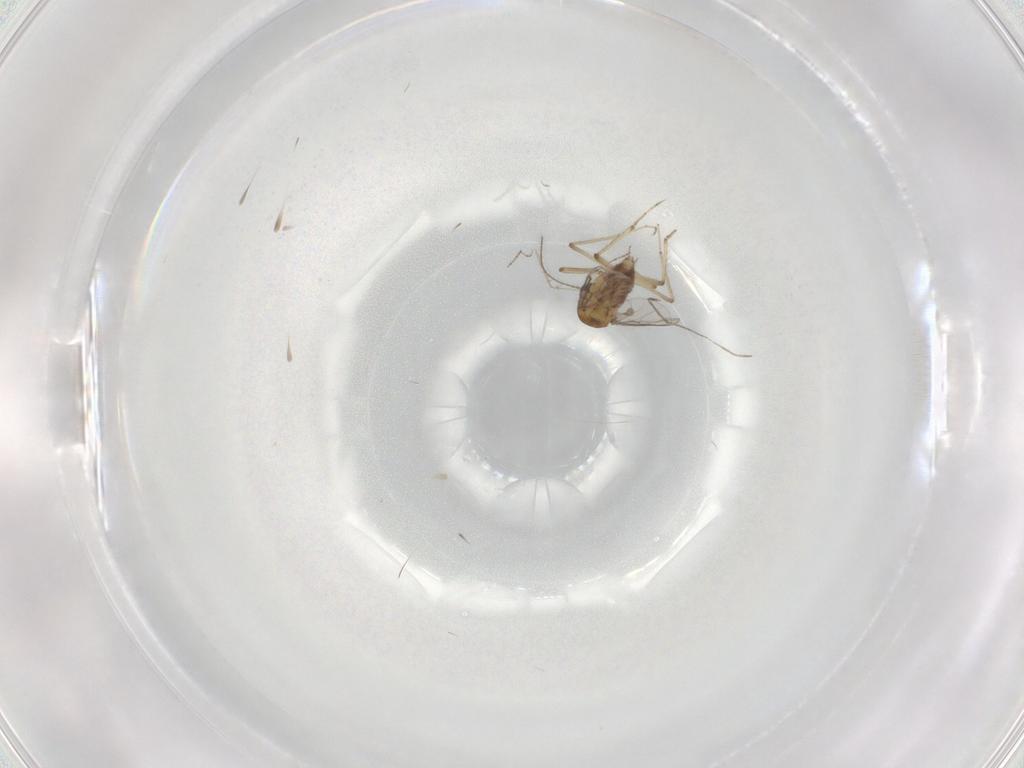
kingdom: Animalia
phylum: Arthropoda
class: Insecta
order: Diptera
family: Cecidomyiidae
